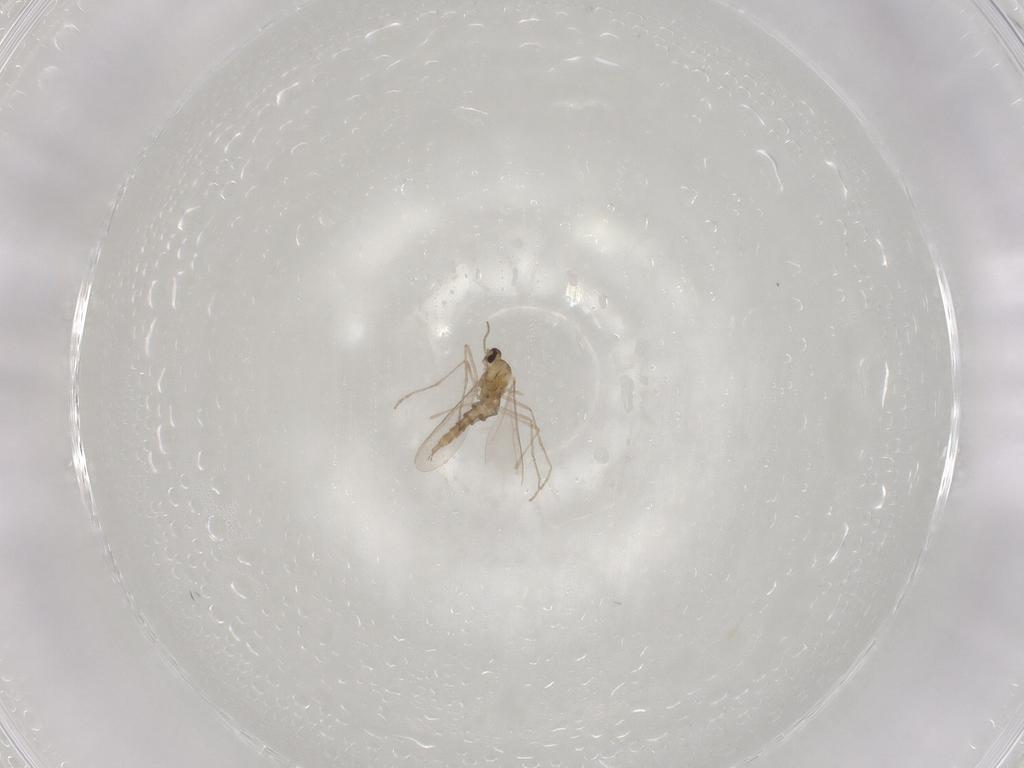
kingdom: Animalia
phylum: Arthropoda
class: Insecta
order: Diptera
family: Cecidomyiidae
